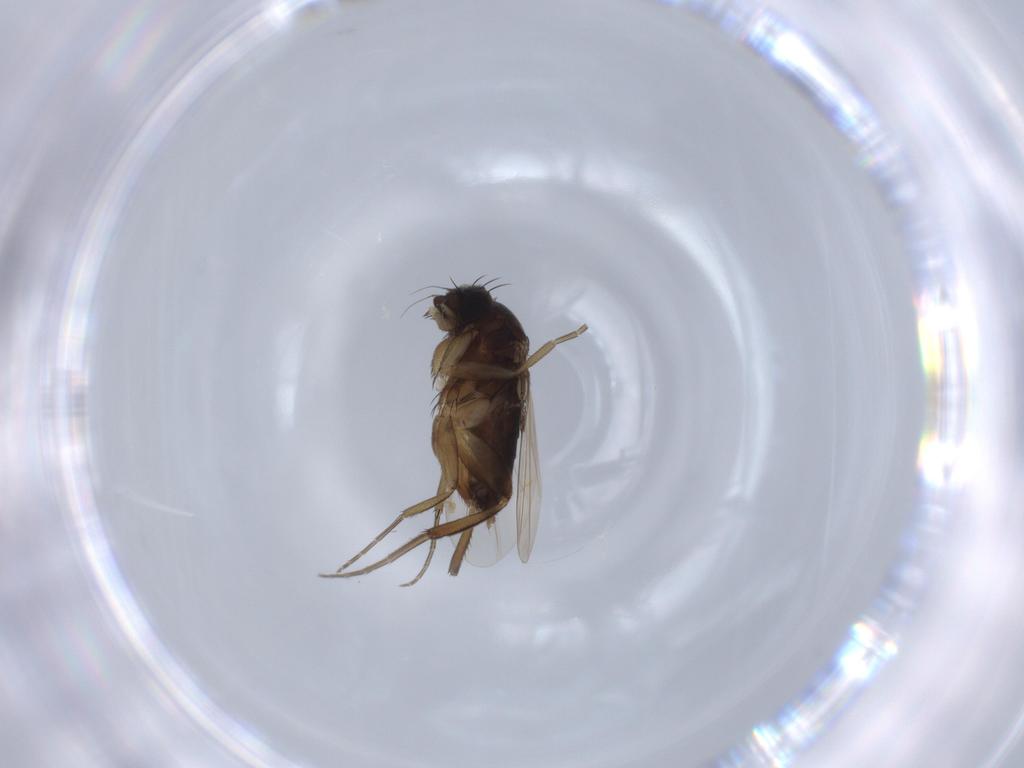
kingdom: Animalia
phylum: Arthropoda
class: Insecta
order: Diptera
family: Phoridae
